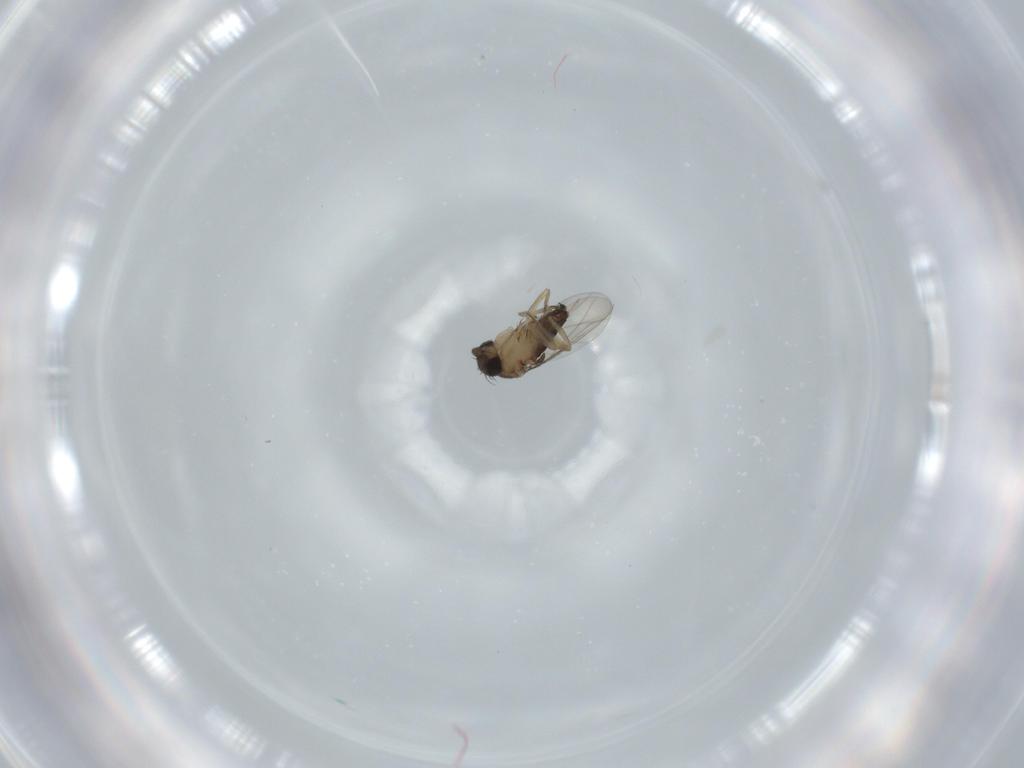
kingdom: Animalia
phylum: Arthropoda
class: Insecta
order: Diptera
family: Phoridae
